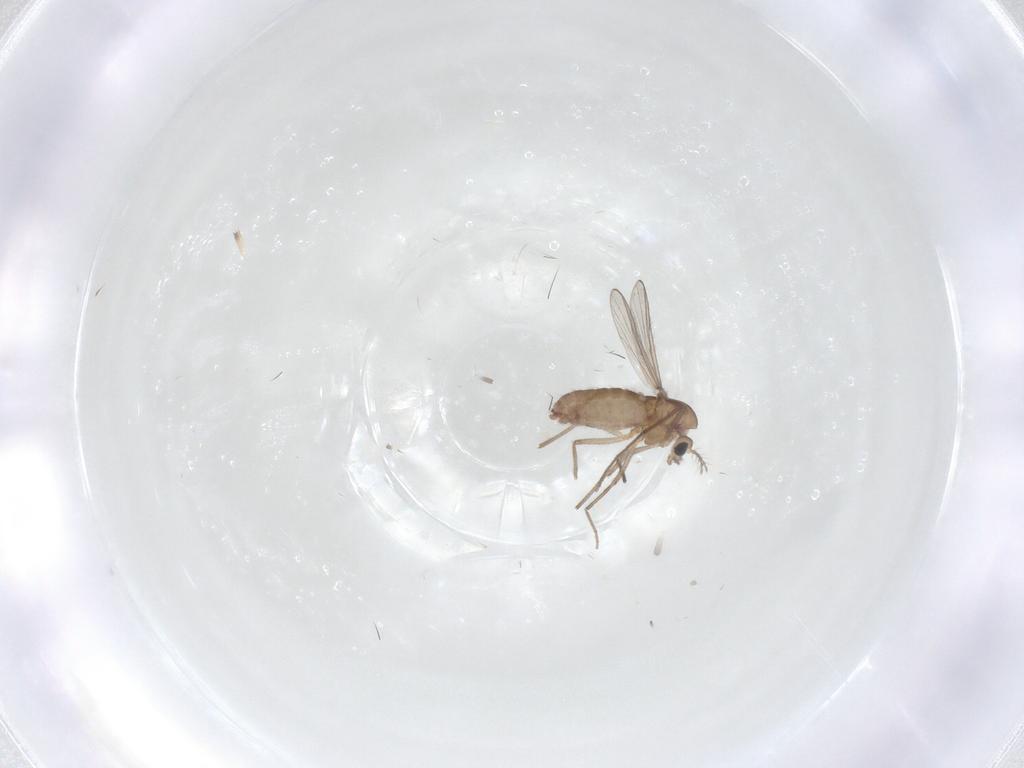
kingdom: Animalia
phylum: Arthropoda
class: Insecta
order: Diptera
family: Chironomidae
